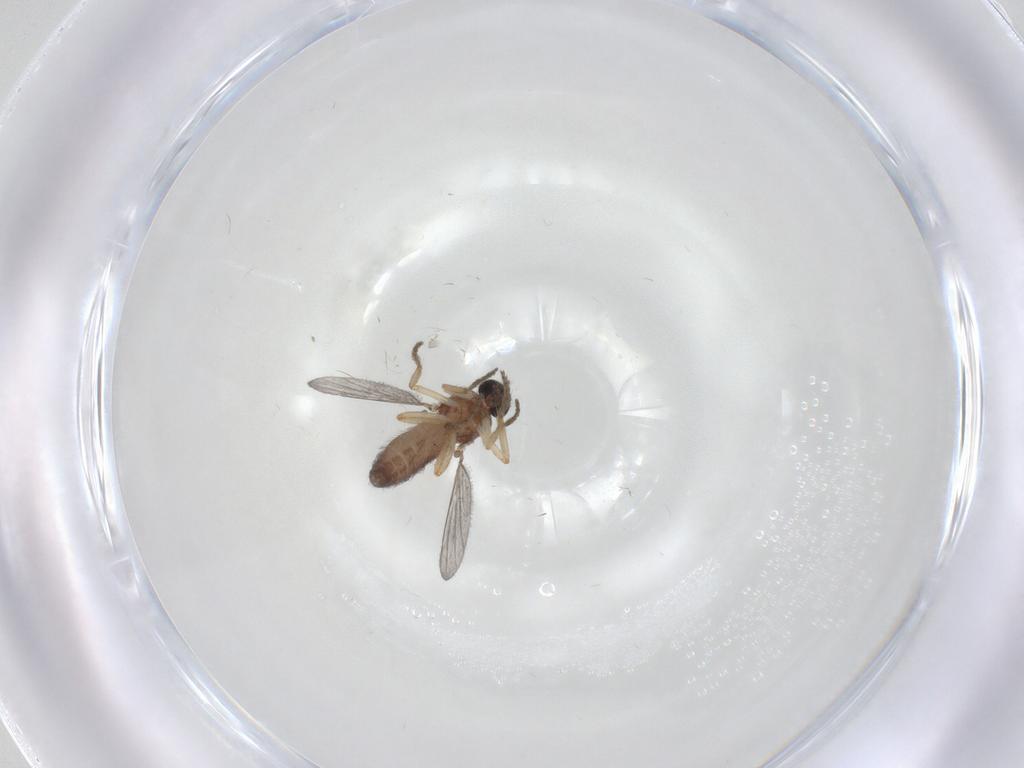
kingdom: Animalia
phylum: Arthropoda
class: Insecta
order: Diptera
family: Ceratopogonidae
